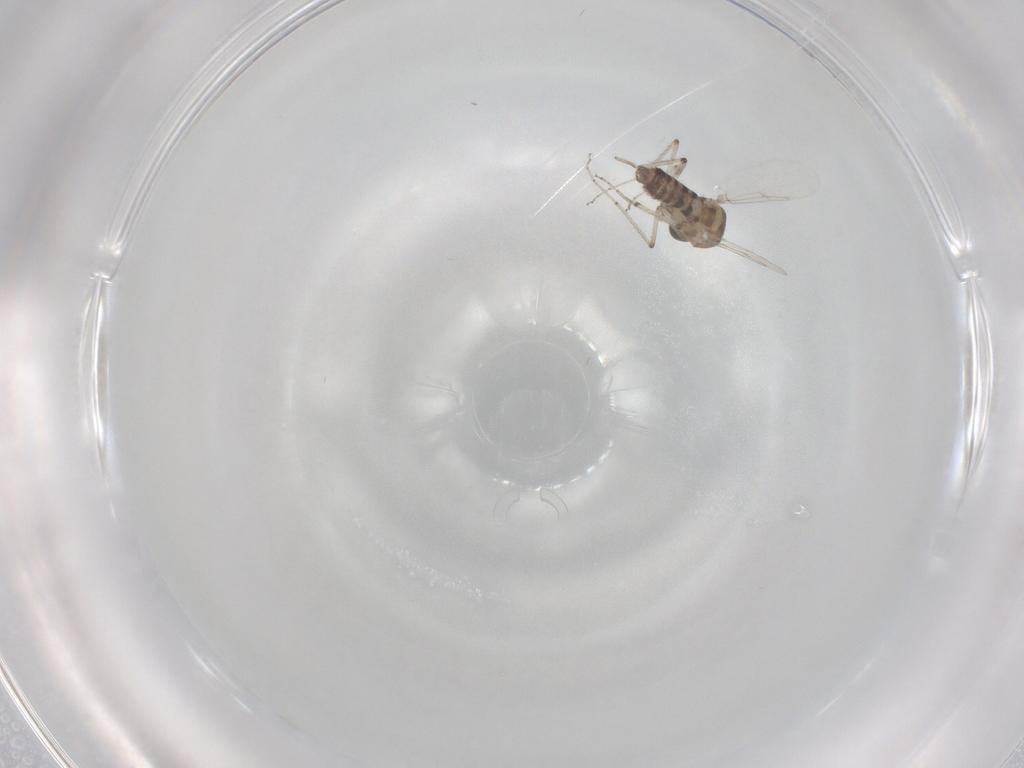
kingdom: Animalia
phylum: Arthropoda
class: Insecta
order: Diptera
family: Ceratopogonidae
